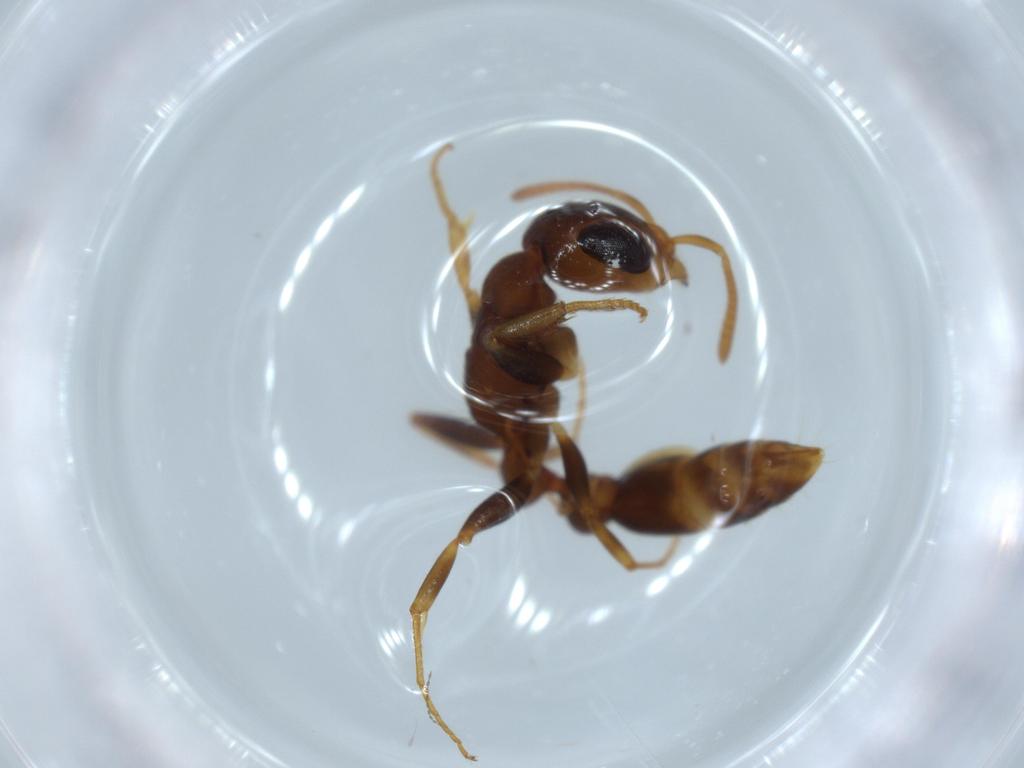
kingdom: Animalia
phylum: Arthropoda
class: Insecta
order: Hymenoptera
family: Formicidae
